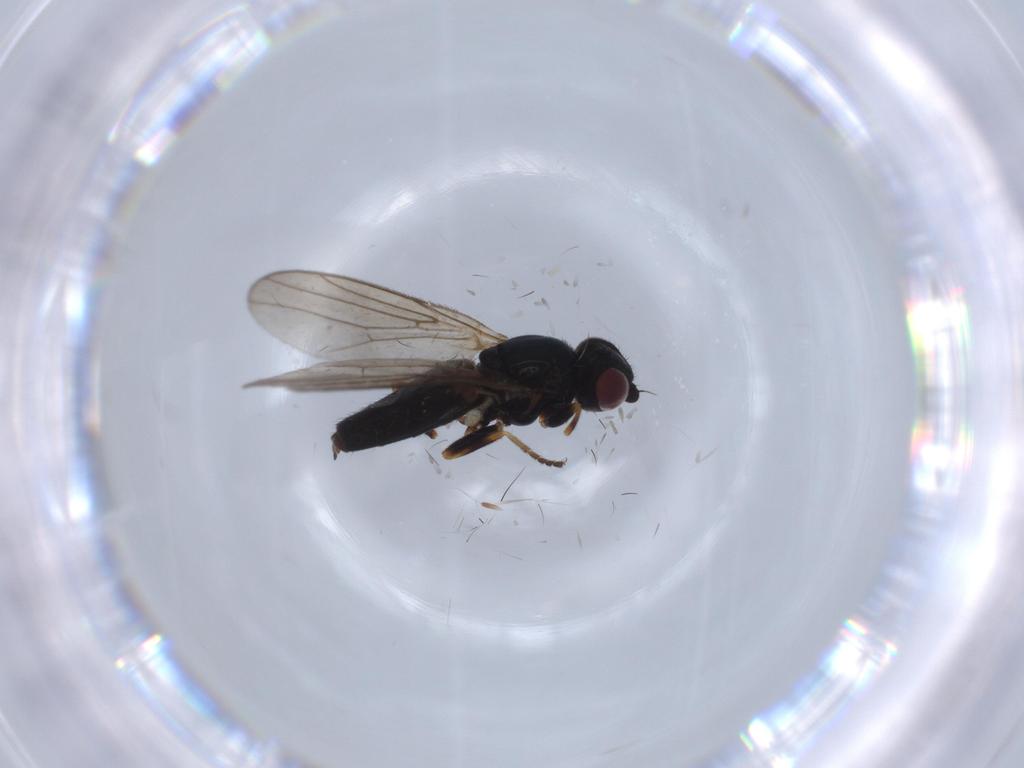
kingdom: Animalia
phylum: Arthropoda
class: Insecta
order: Diptera
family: Chloropidae
